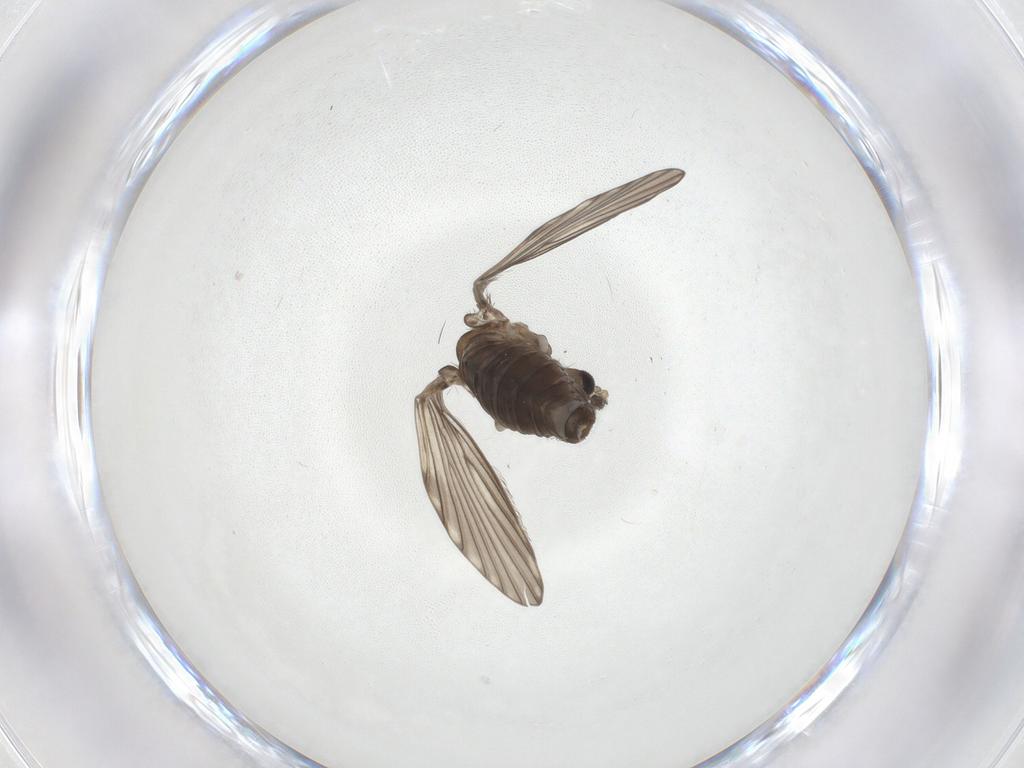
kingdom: Animalia
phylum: Arthropoda
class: Insecta
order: Diptera
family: Psychodidae
